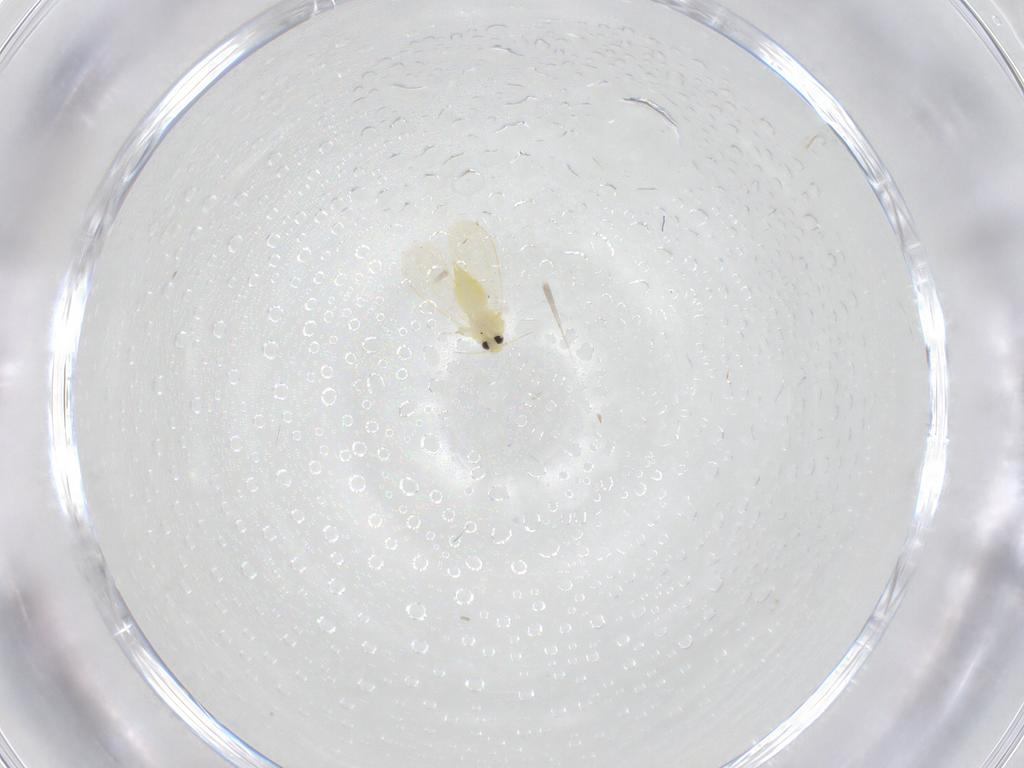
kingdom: Animalia
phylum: Arthropoda
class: Insecta
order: Hemiptera
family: Aleyrodidae
